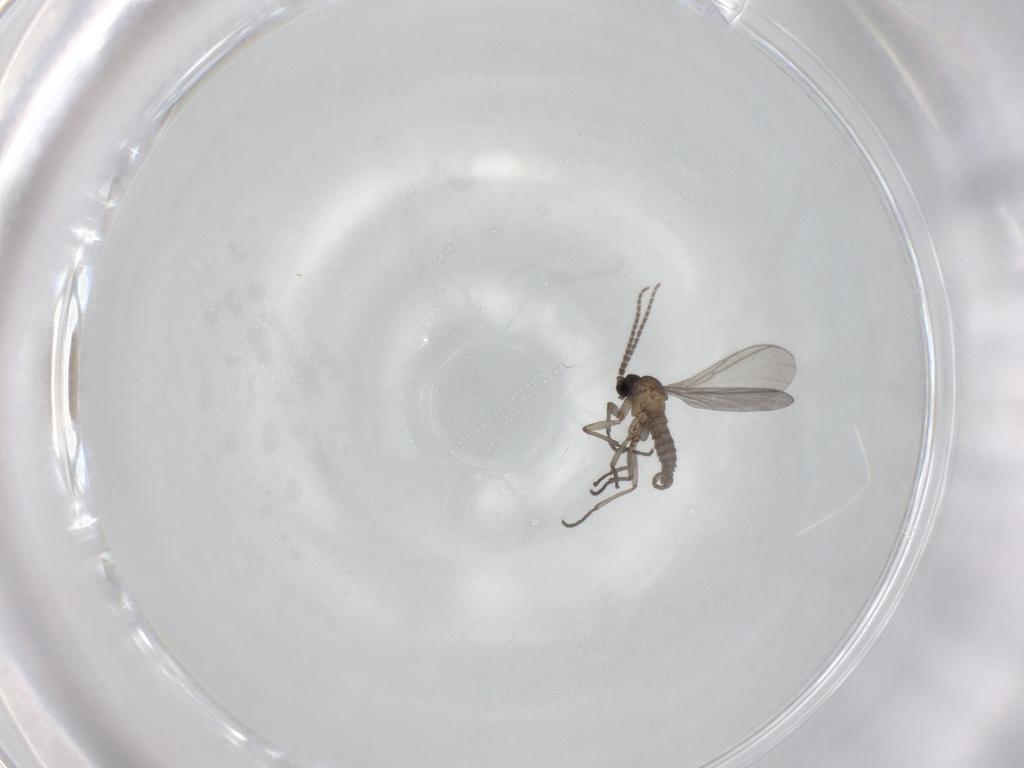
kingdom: Animalia
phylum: Arthropoda
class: Insecta
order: Diptera
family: Sciaridae
